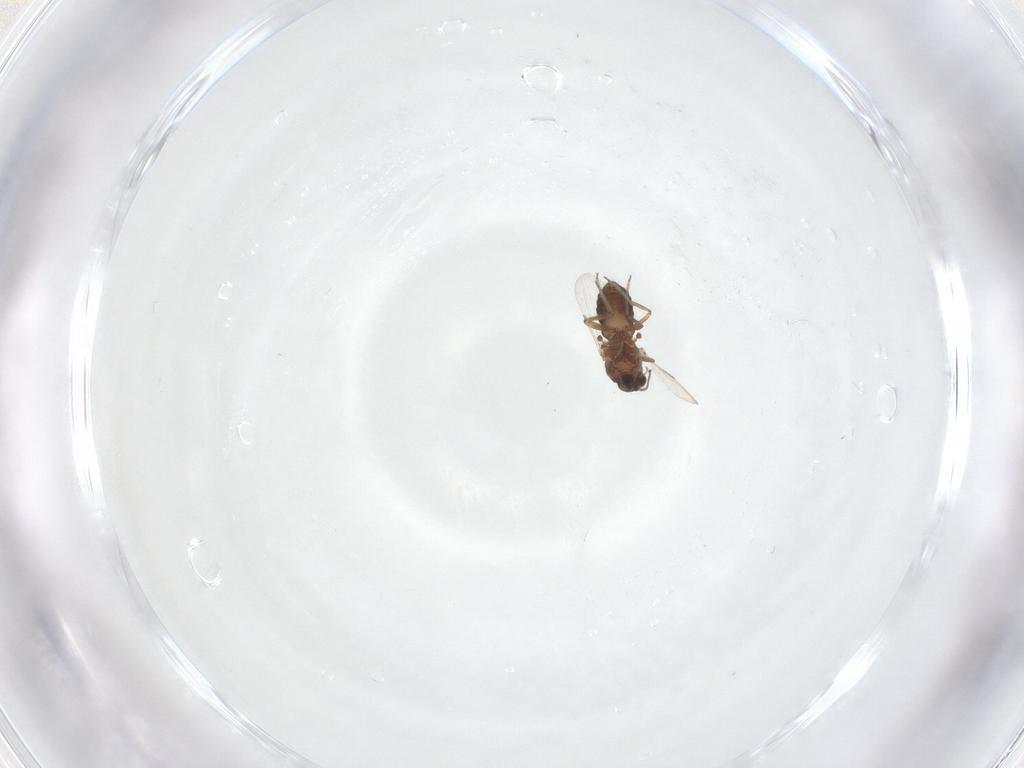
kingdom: Animalia
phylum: Arthropoda
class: Insecta
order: Diptera
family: Ceratopogonidae
